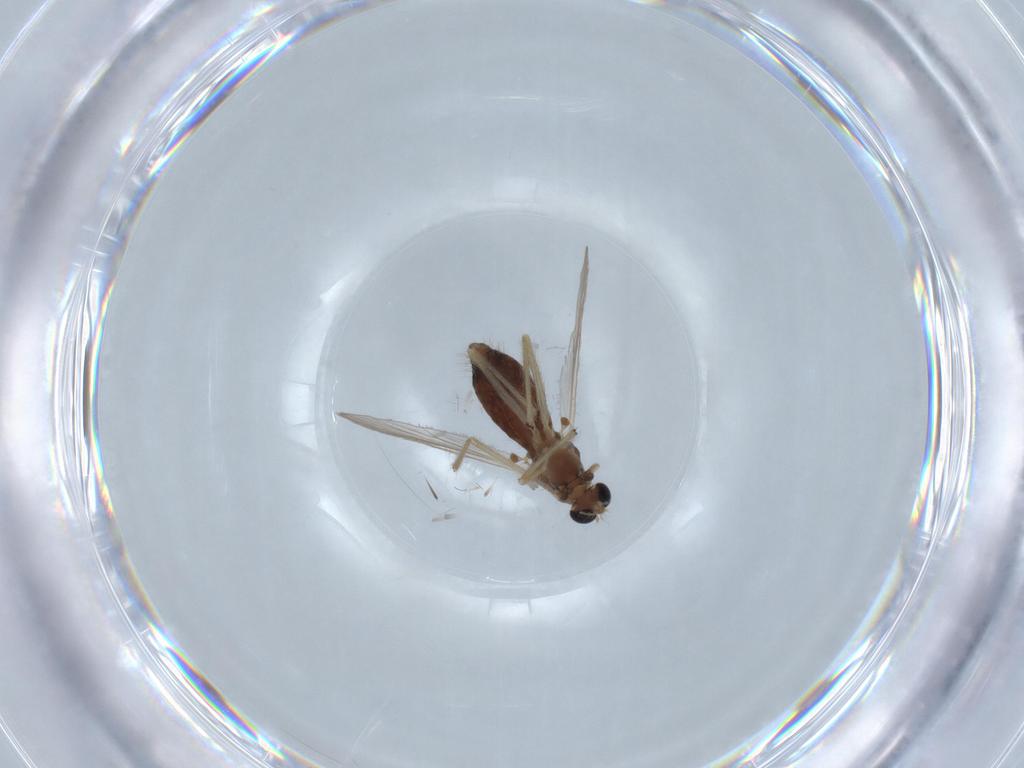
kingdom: Animalia
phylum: Arthropoda
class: Insecta
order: Diptera
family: Chironomidae
